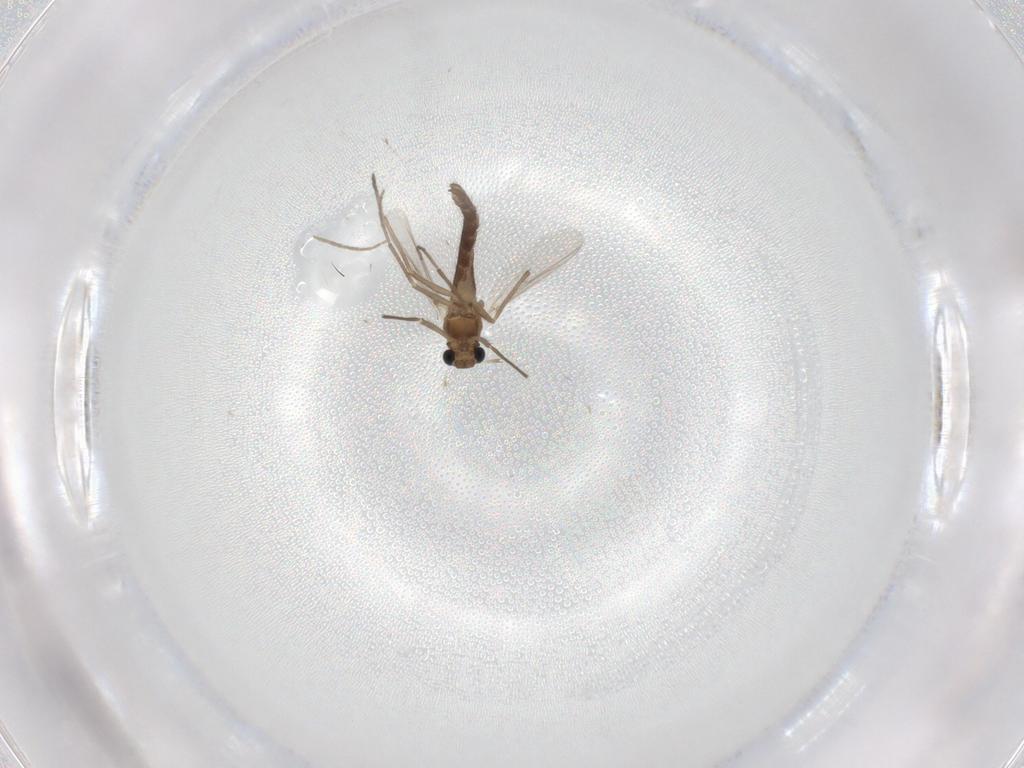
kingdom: Animalia
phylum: Arthropoda
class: Insecta
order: Diptera
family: Chironomidae
